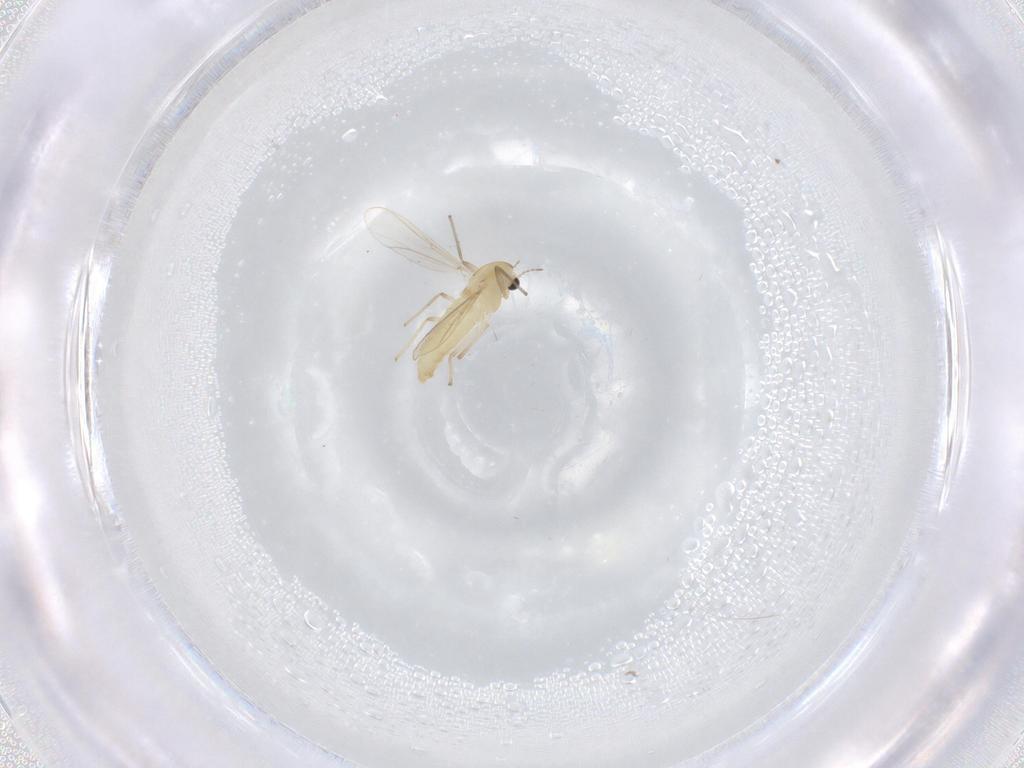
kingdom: Animalia
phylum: Arthropoda
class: Insecta
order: Diptera
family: Chironomidae
